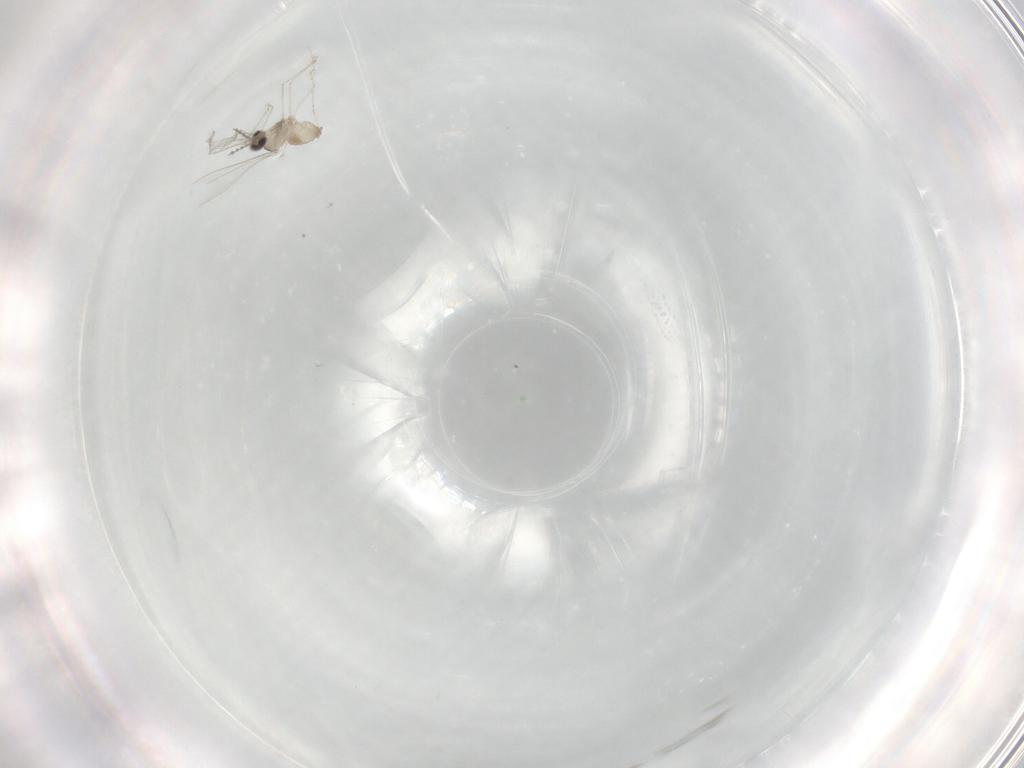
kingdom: Animalia
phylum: Arthropoda
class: Insecta
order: Diptera
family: Cecidomyiidae
